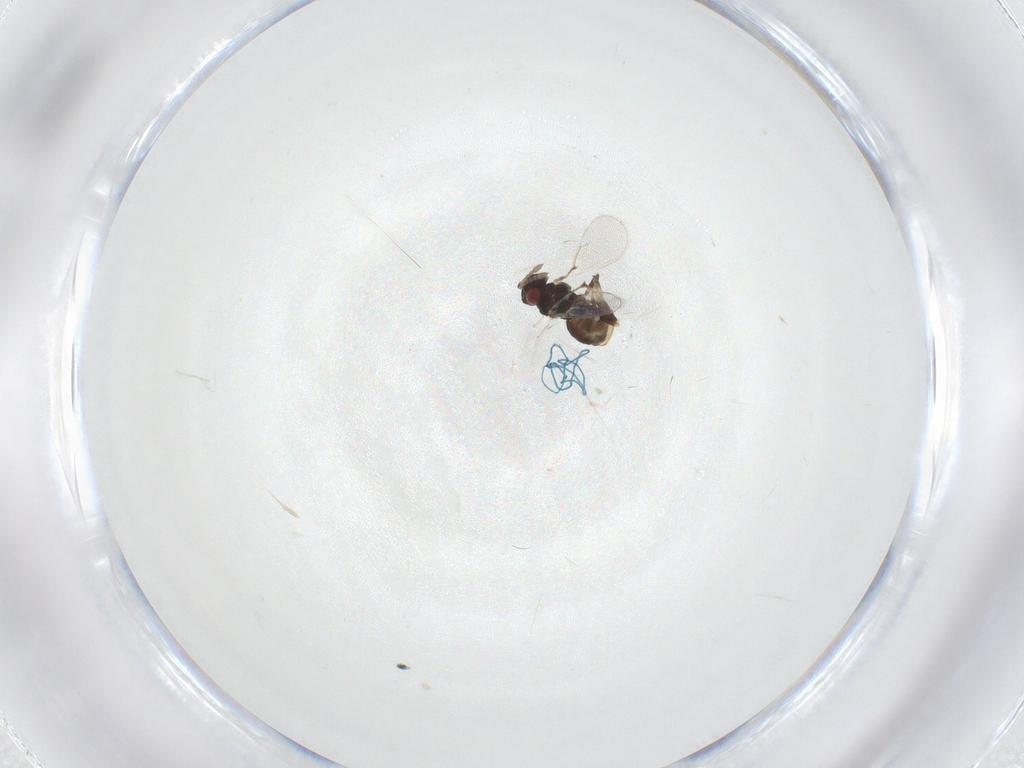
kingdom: Animalia
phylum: Arthropoda
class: Insecta
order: Hymenoptera
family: Eulophidae
